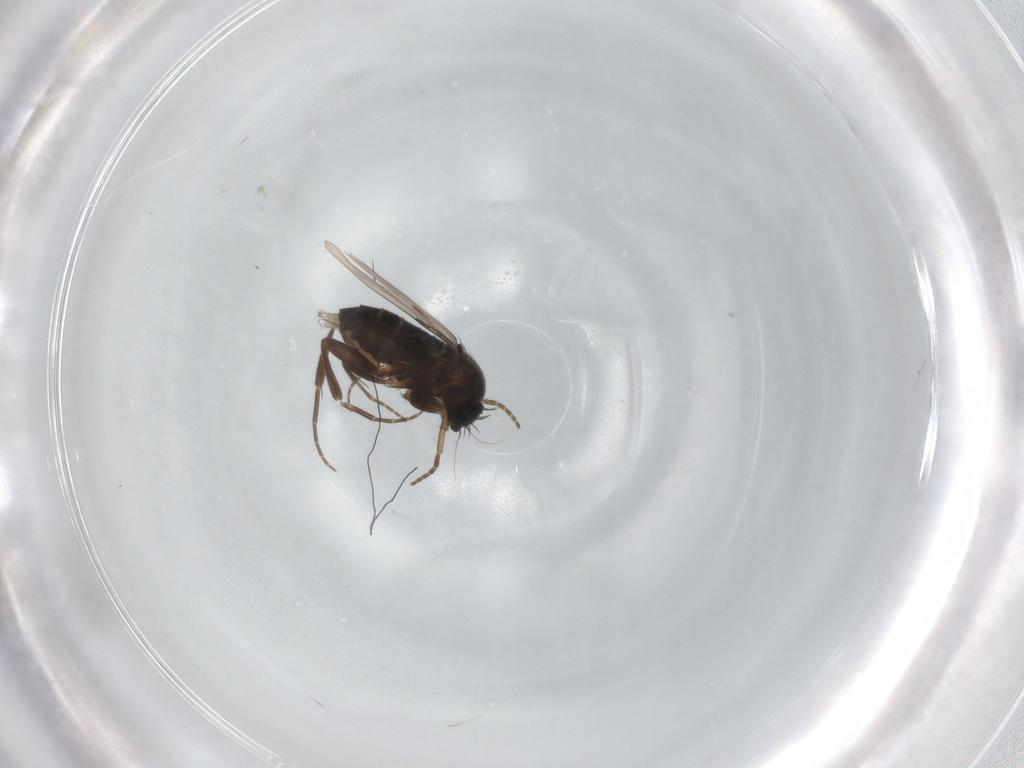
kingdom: Animalia
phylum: Arthropoda
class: Insecta
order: Diptera
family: Phoridae
